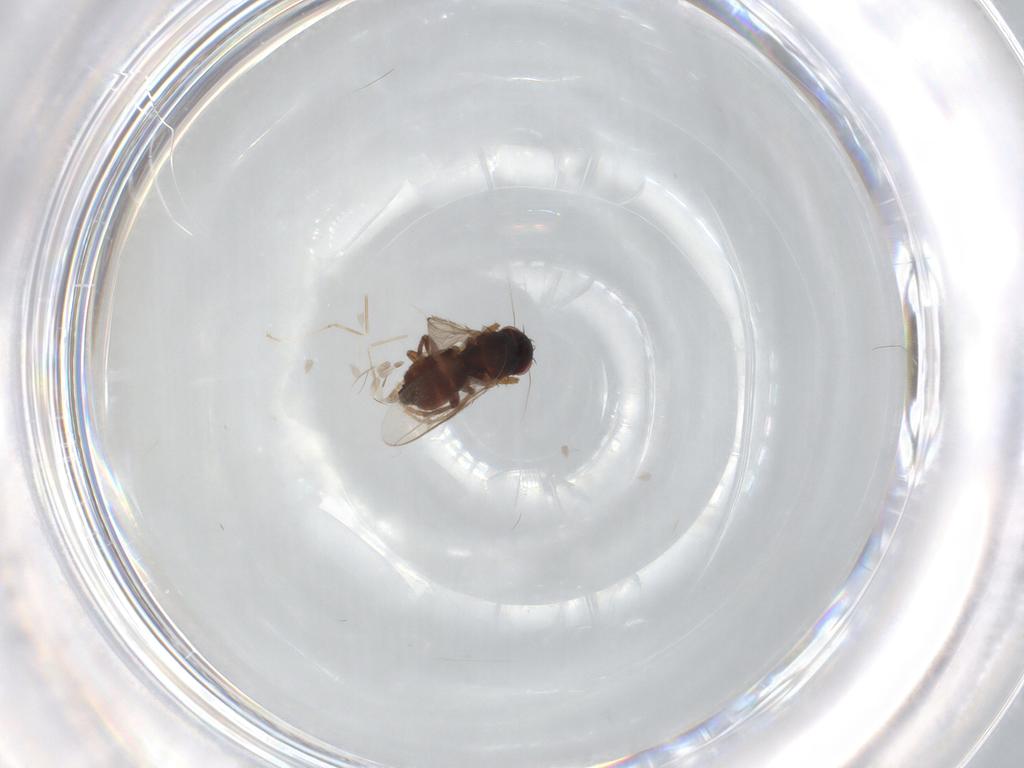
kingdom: Animalia
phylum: Arthropoda
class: Insecta
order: Diptera
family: Sphaeroceridae
